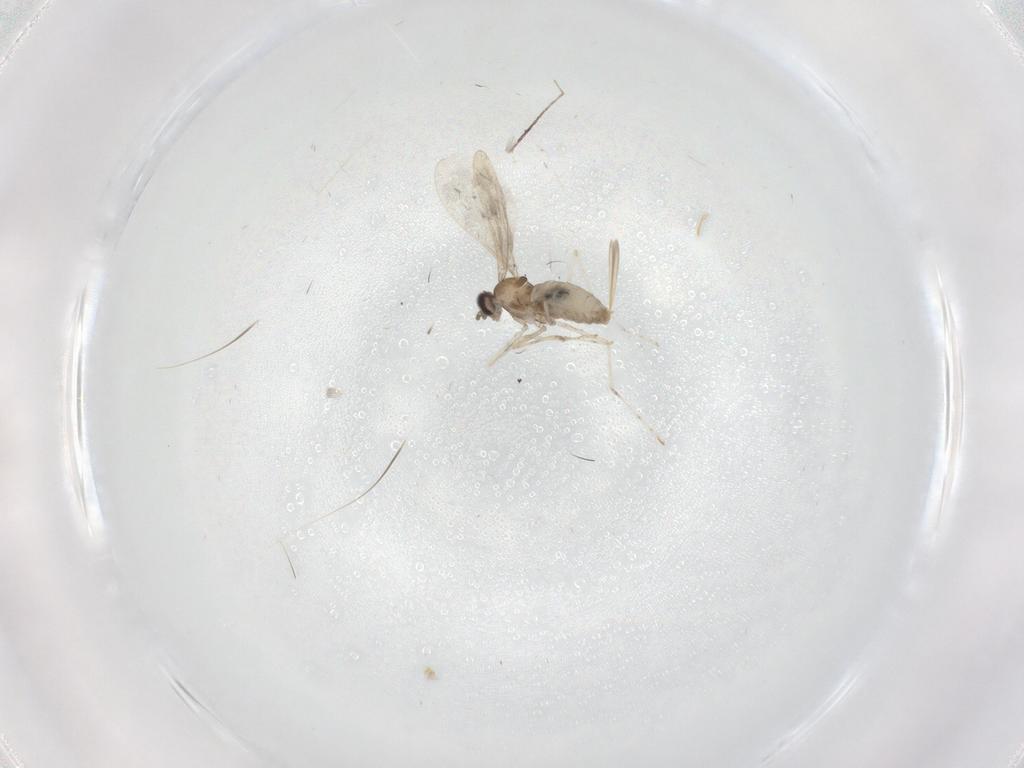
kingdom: Animalia
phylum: Arthropoda
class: Insecta
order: Diptera
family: Cecidomyiidae
